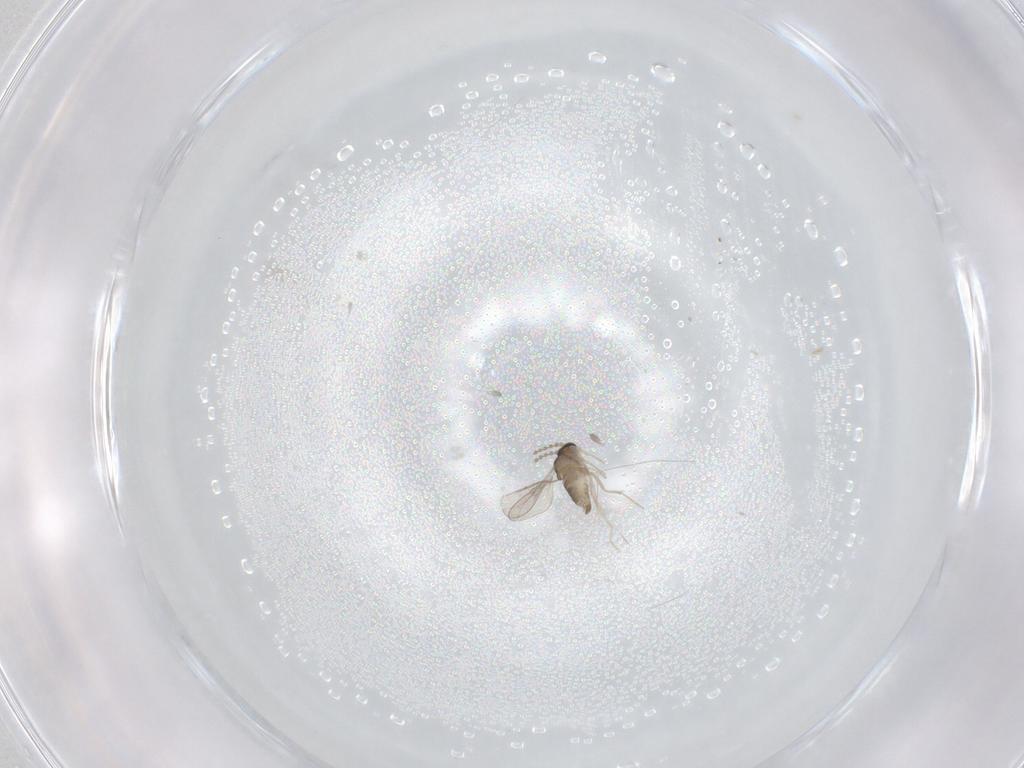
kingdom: Animalia
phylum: Arthropoda
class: Insecta
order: Diptera
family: Cecidomyiidae
